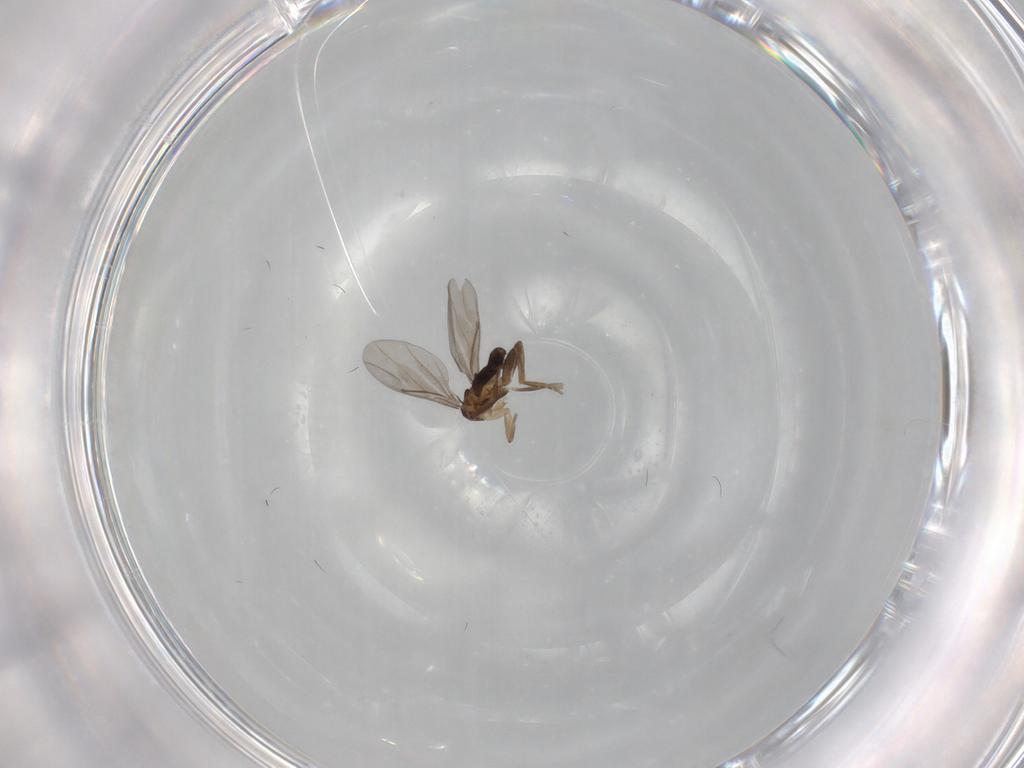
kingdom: Animalia
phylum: Arthropoda
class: Insecta
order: Diptera
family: Cecidomyiidae
